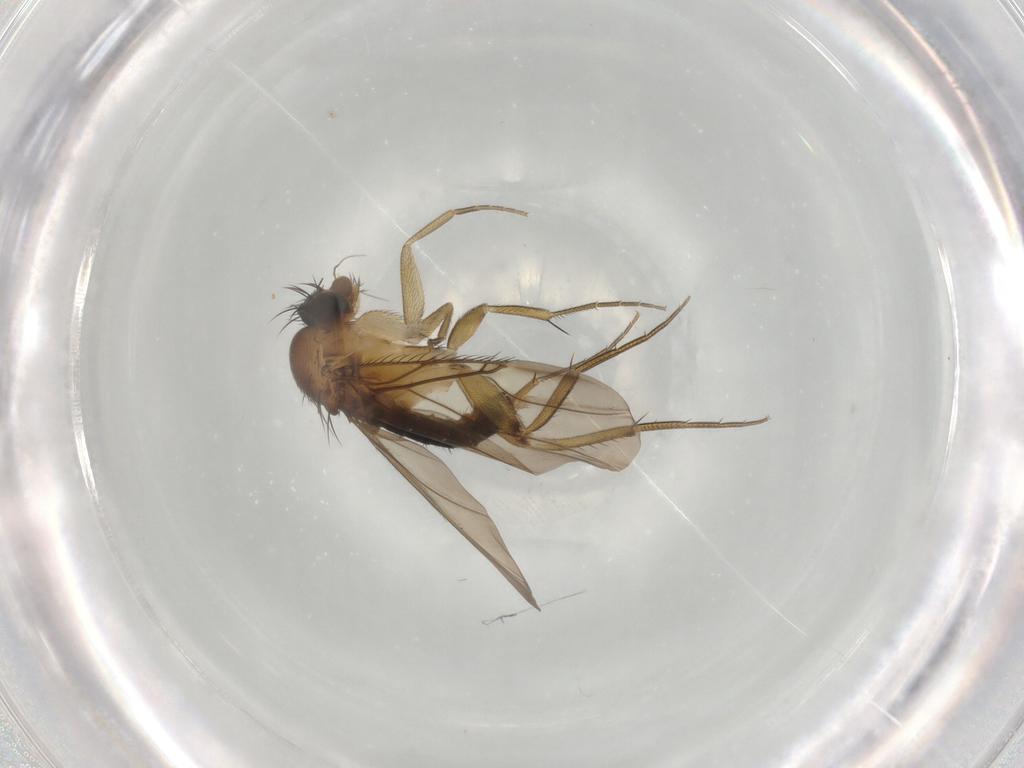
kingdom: Animalia
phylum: Arthropoda
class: Insecta
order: Diptera
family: Phoridae
